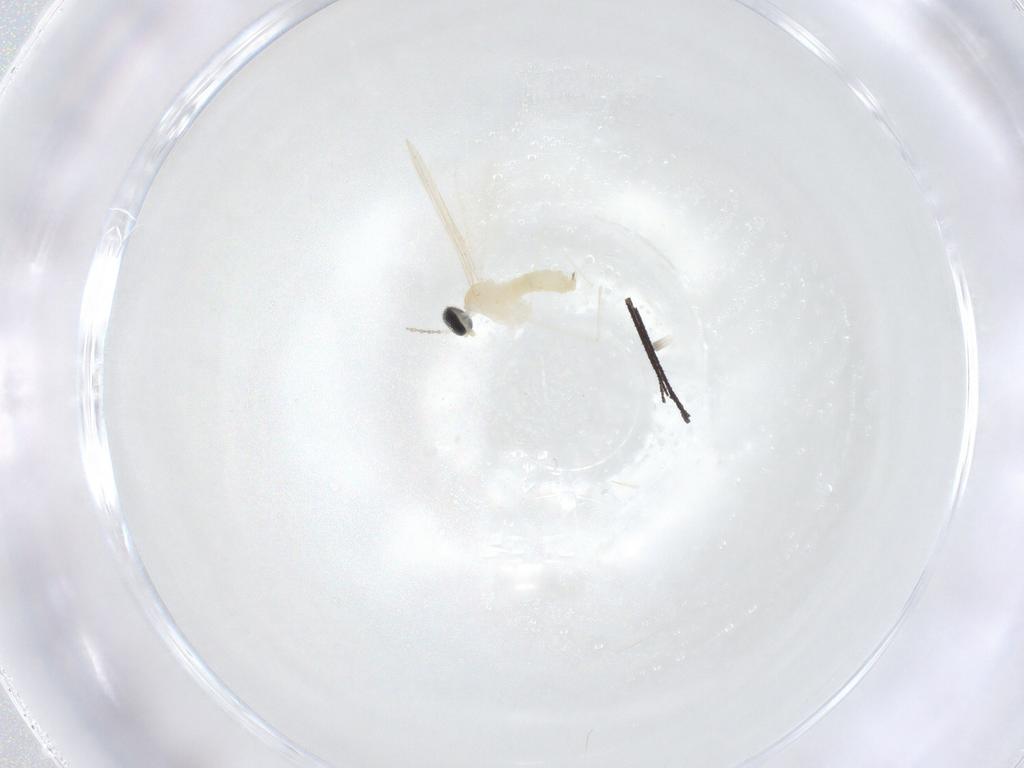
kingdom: Animalia
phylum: Arthropoda
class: Insecta
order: Diptera
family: Cecidomyiidae
